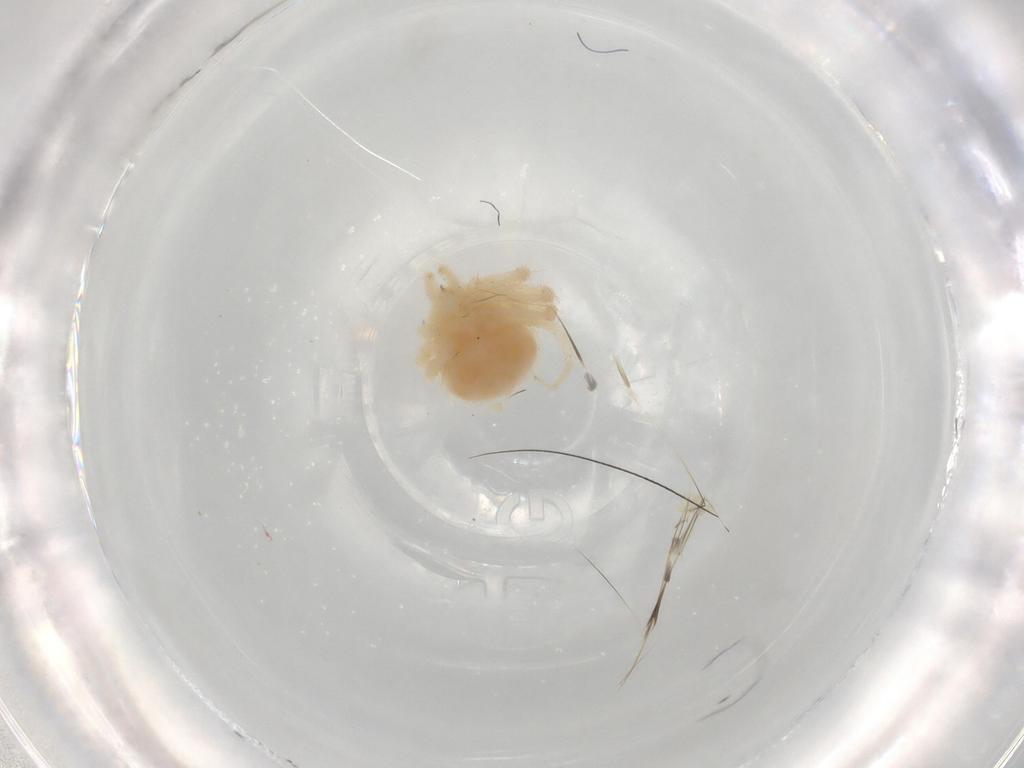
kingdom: Animalia
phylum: Arthropoda
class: Arachnida
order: Trombidiformes
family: Anystidae
